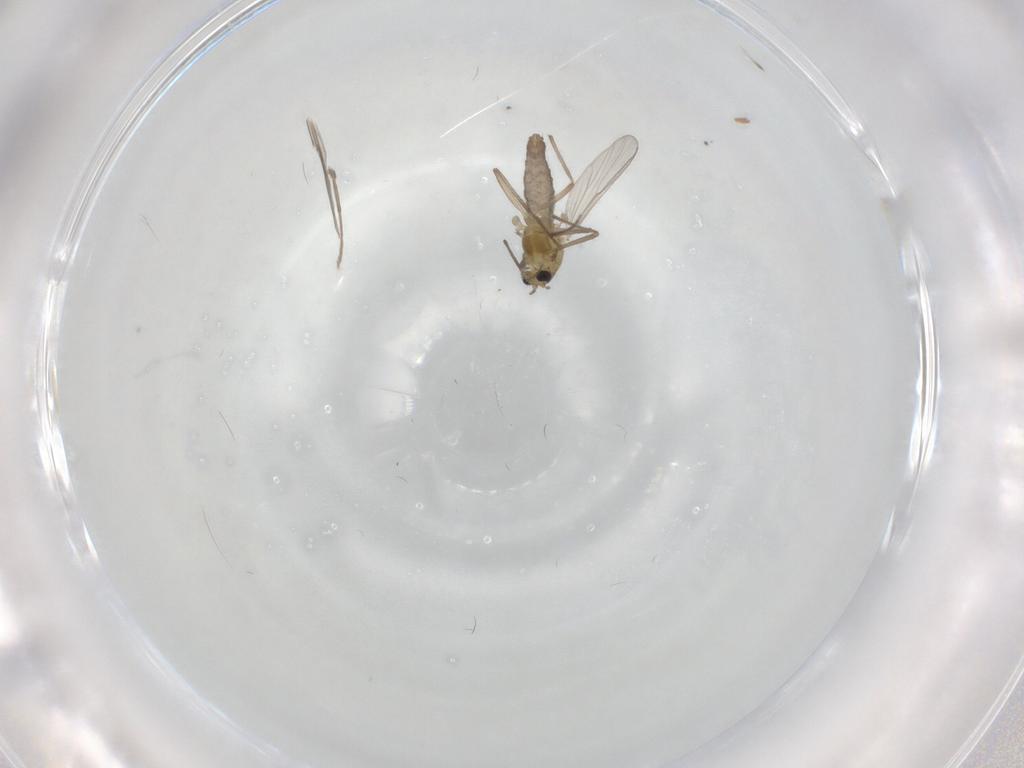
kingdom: Animalia
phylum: Arthropoda
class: Insecta
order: Diptera
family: Chironomidae
